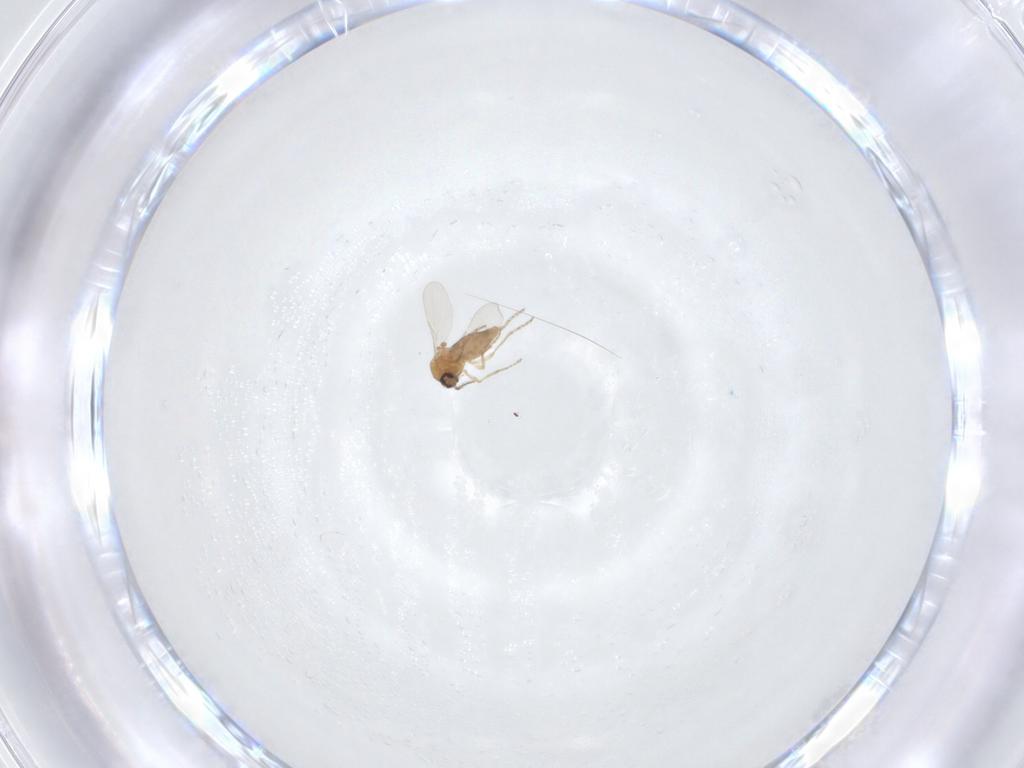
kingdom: Animalia
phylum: Arthropoda
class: Insecta
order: Diptera
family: Ceratopogonidae
